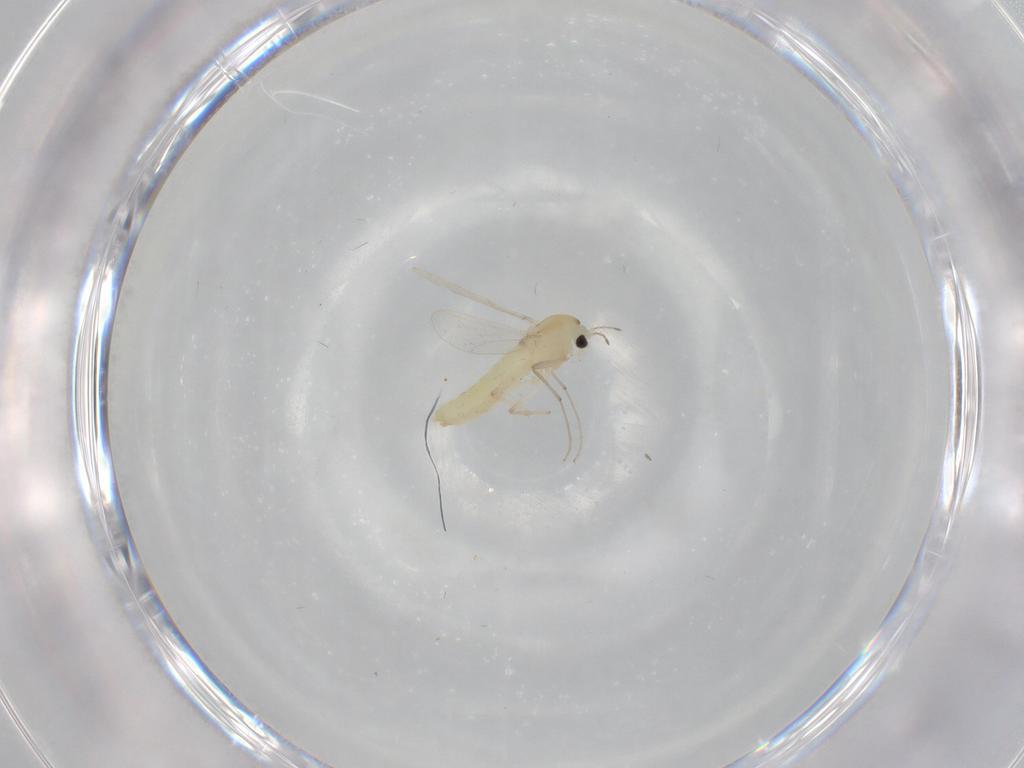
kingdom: Animalia
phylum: Arthropoda
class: Insecta
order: Diptera
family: Chironomidae
